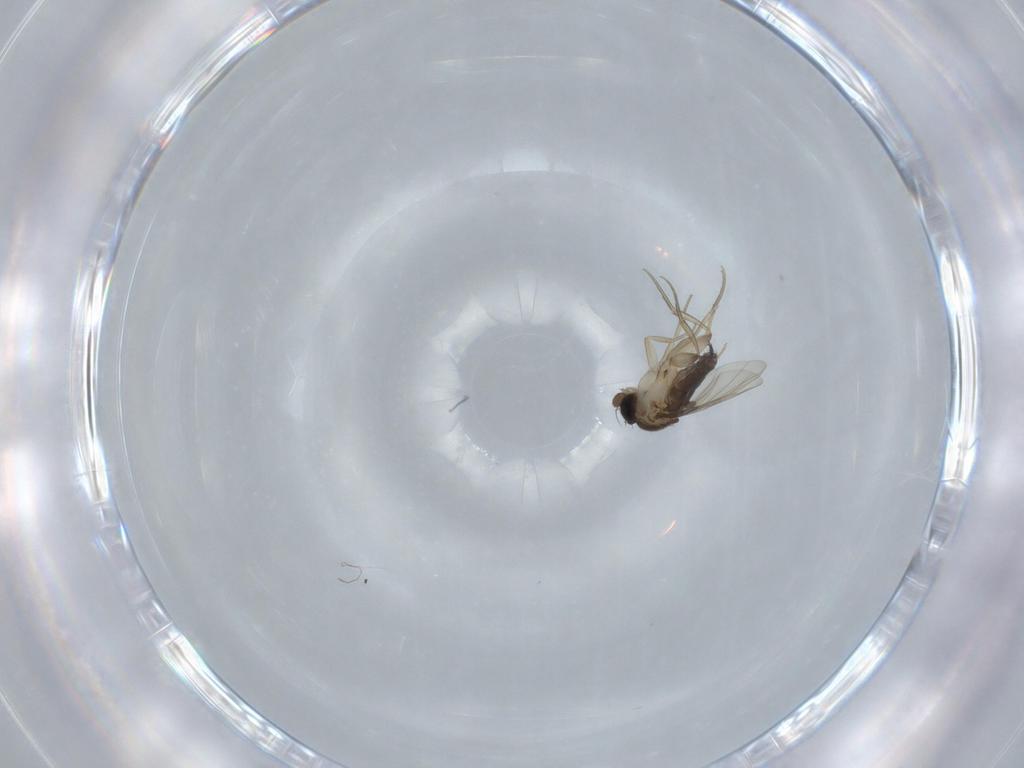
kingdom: Animalia
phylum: Arthropoda
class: Insecta
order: Diptera
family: Phoridae
